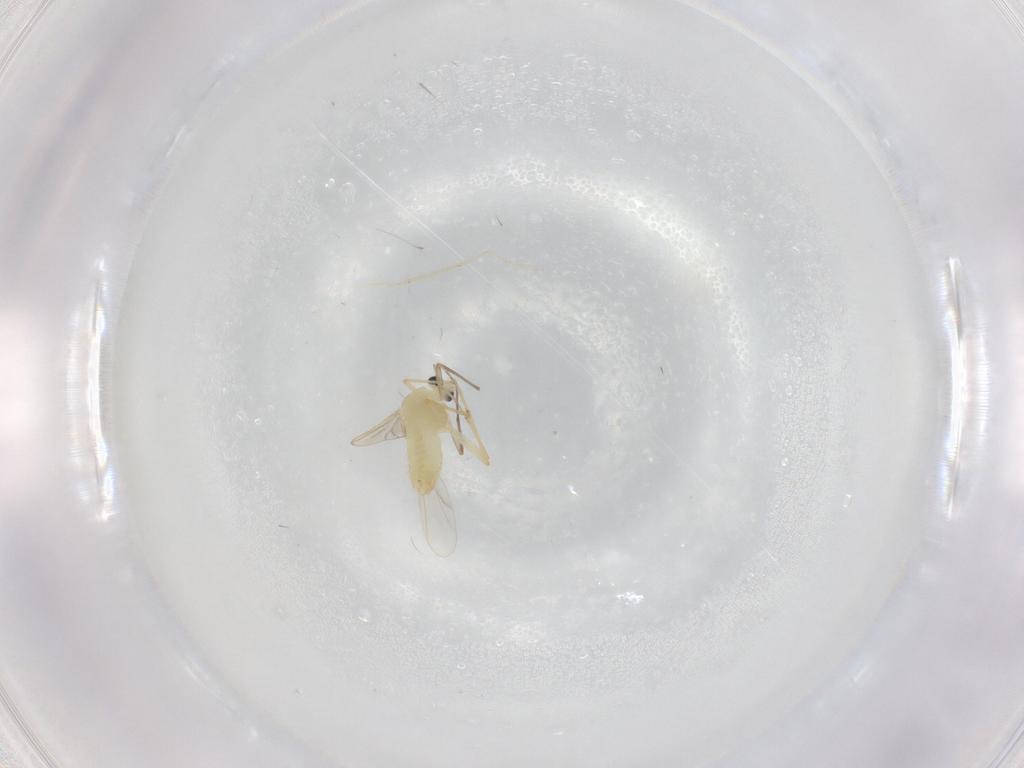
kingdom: Animalia
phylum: Arthropoda
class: Insecta
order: Diptera
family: Chironomidae
